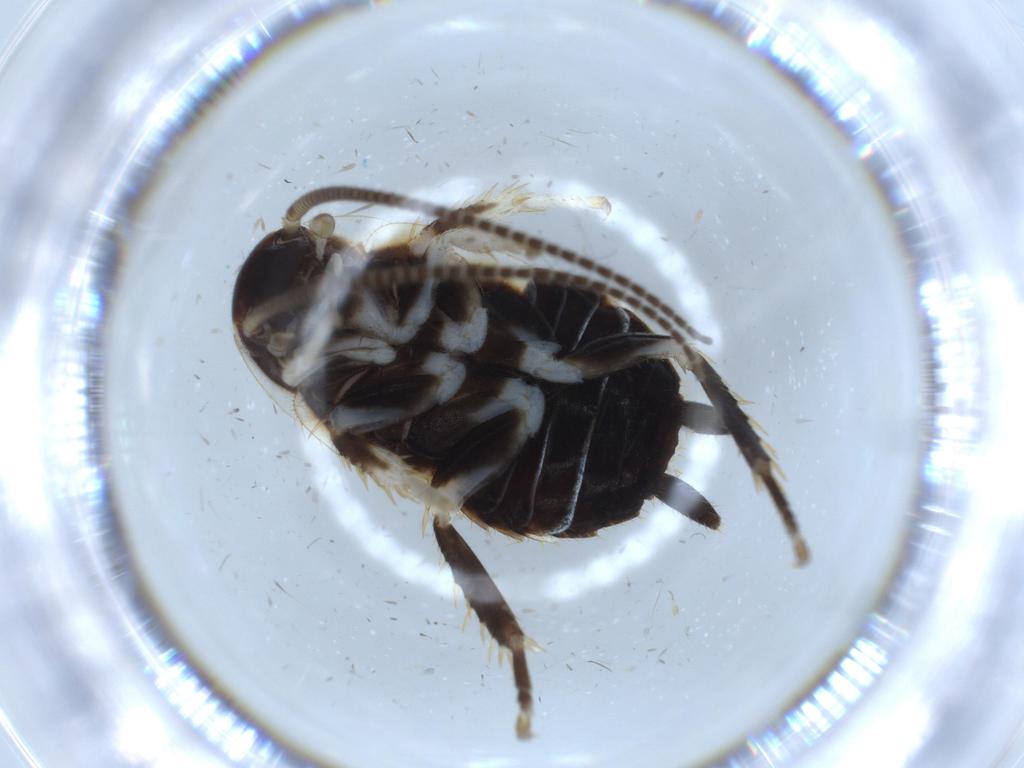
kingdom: Animalia
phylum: Arthropoda
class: Insecta
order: Blattodea
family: Ectobiidae
